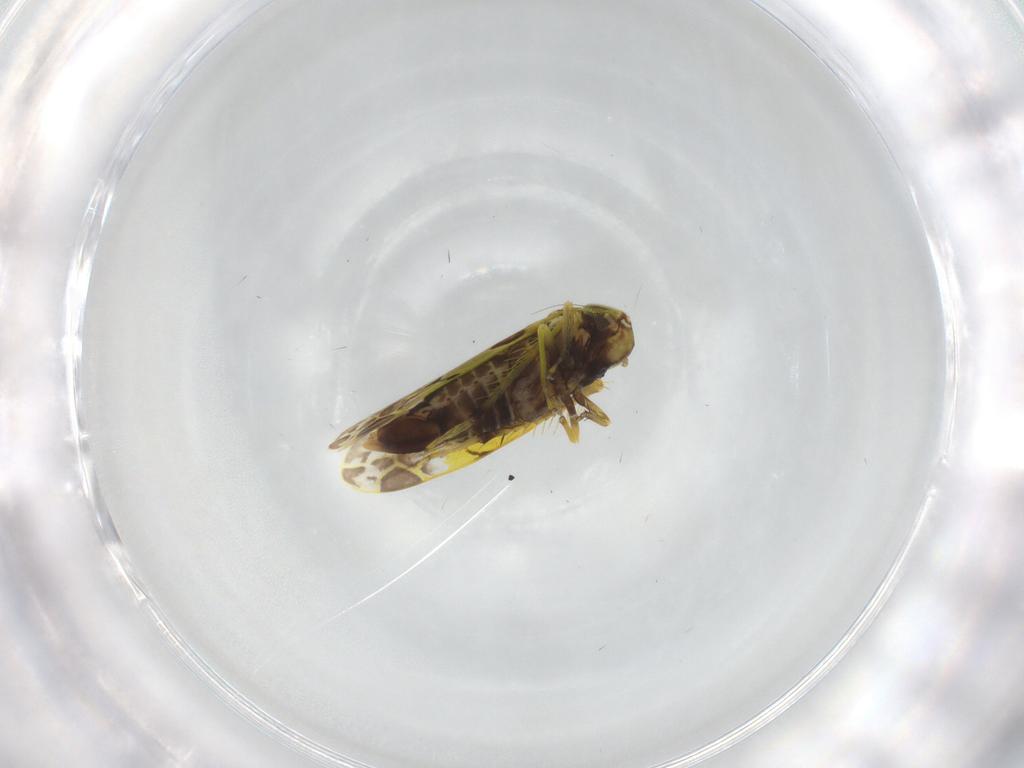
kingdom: Animalia
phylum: Arthropoda
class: Insecta
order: Hemiptera
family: Cicadellidae
